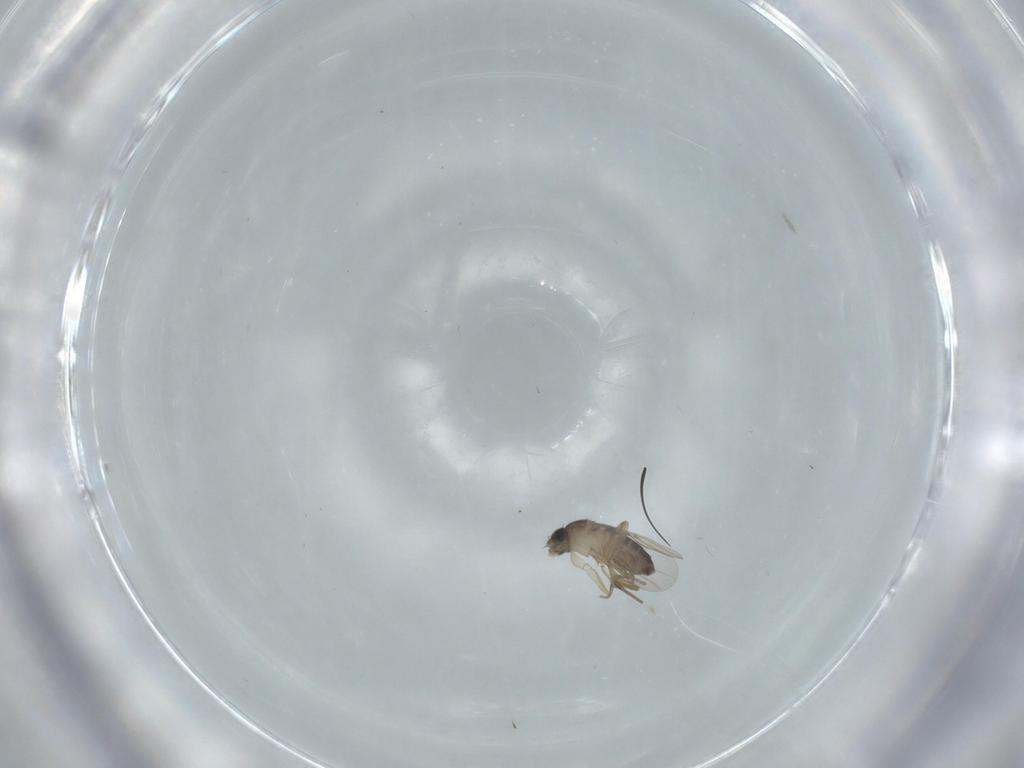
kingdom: Animalia
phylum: Arthropoda
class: Insecta
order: Diptera
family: Phoridae
